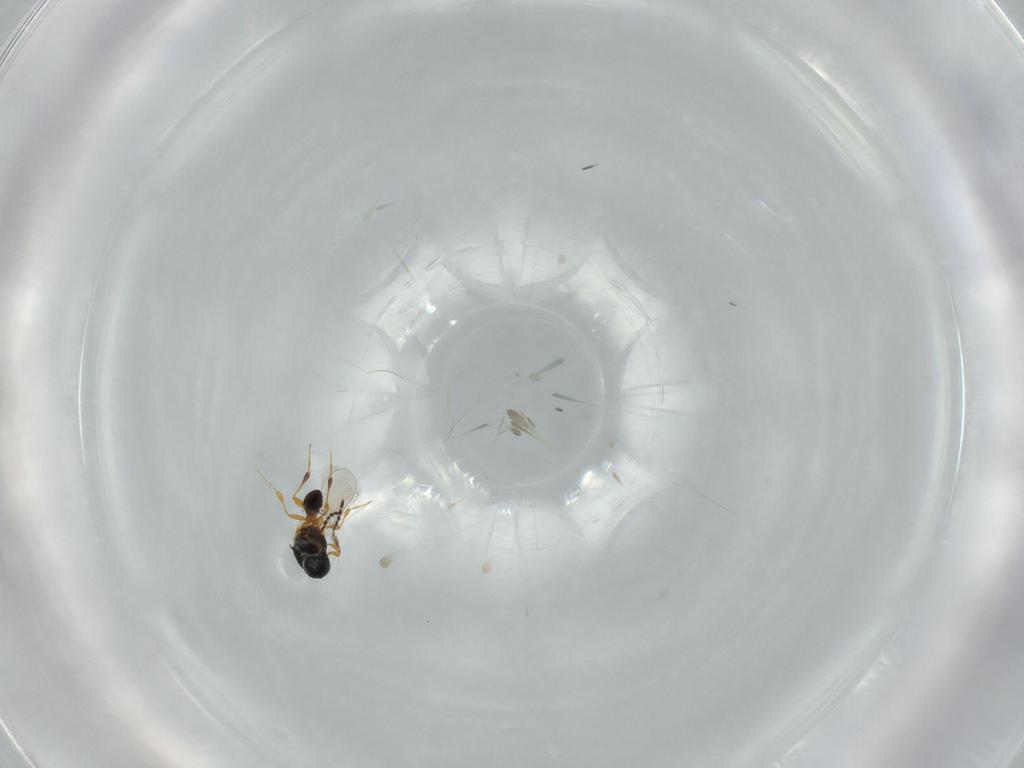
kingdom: Animalia
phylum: Arthropoda
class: Insecta
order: Hymenoptera
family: Platygastridae
